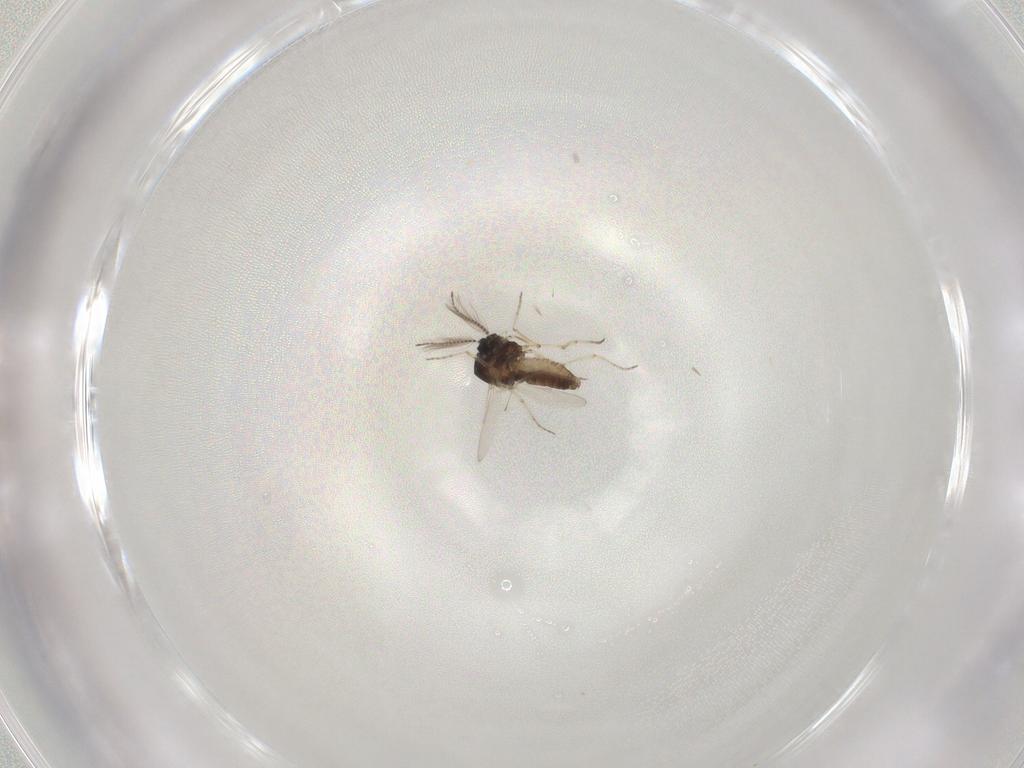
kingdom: Animalia
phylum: Arthropoda
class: Insecta
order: Diptera
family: Ceratopogonidae
